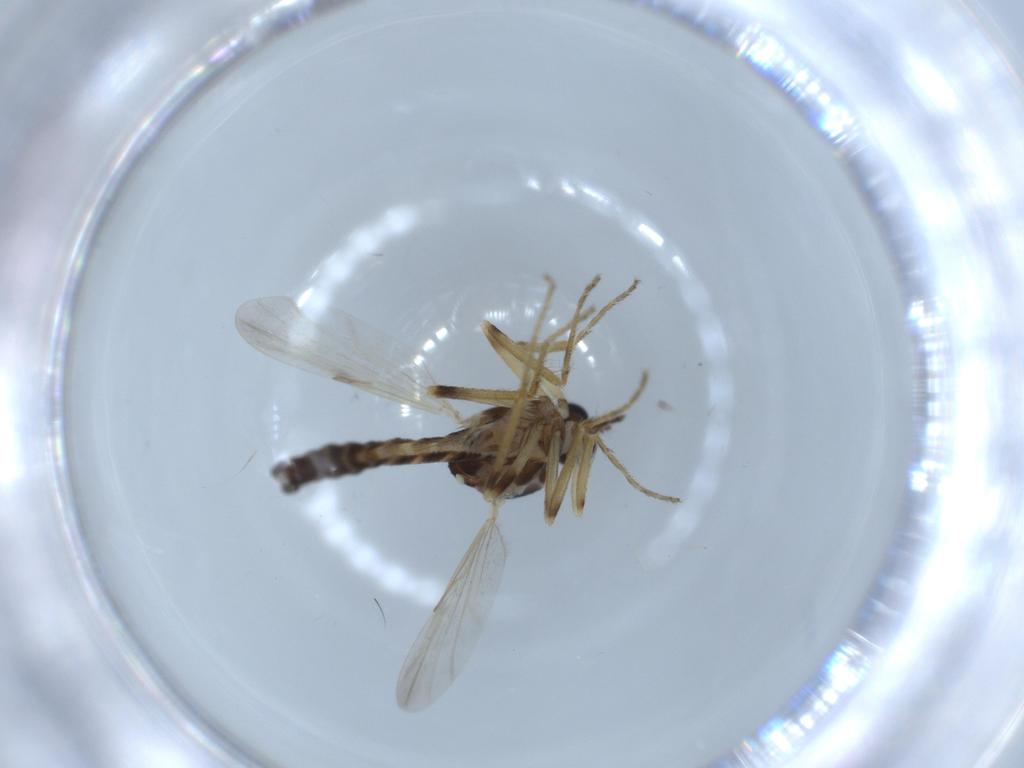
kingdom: Animalia
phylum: Arthropoda
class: Insecta
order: Diptera
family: Ceratopogonidae
